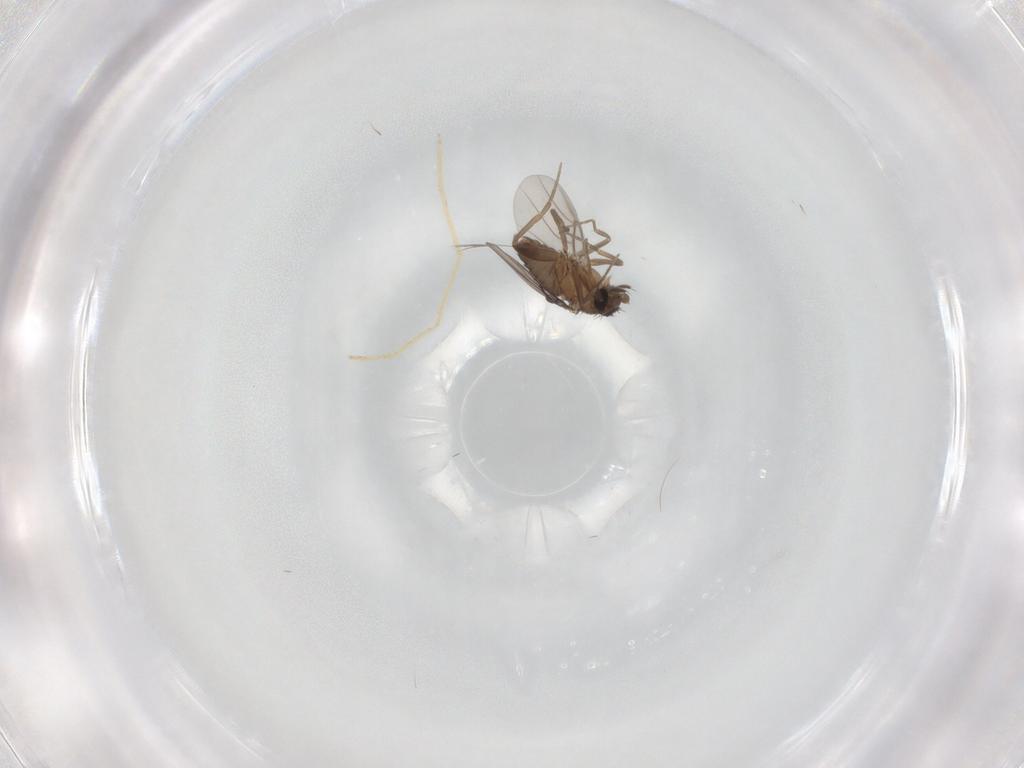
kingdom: Animalia
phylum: Arthropoda
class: Insecta
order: Diptera
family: Phoridae
